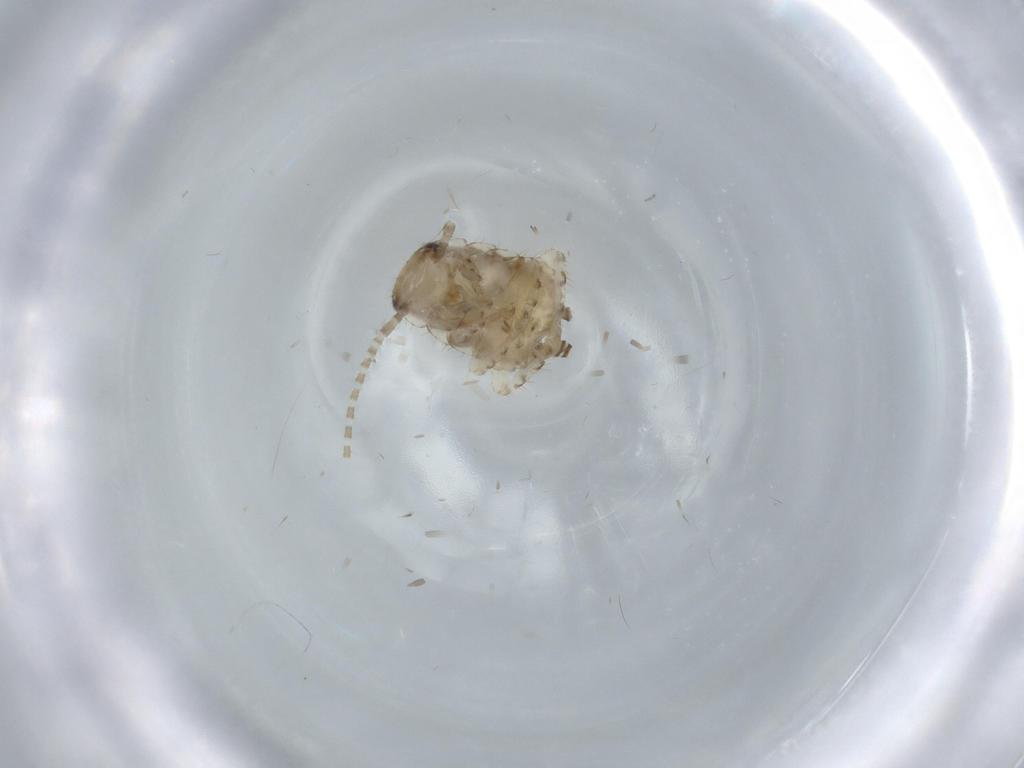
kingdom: Animalia
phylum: Arthropoda
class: Insecta
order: Blattodea
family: Ectobiidae
